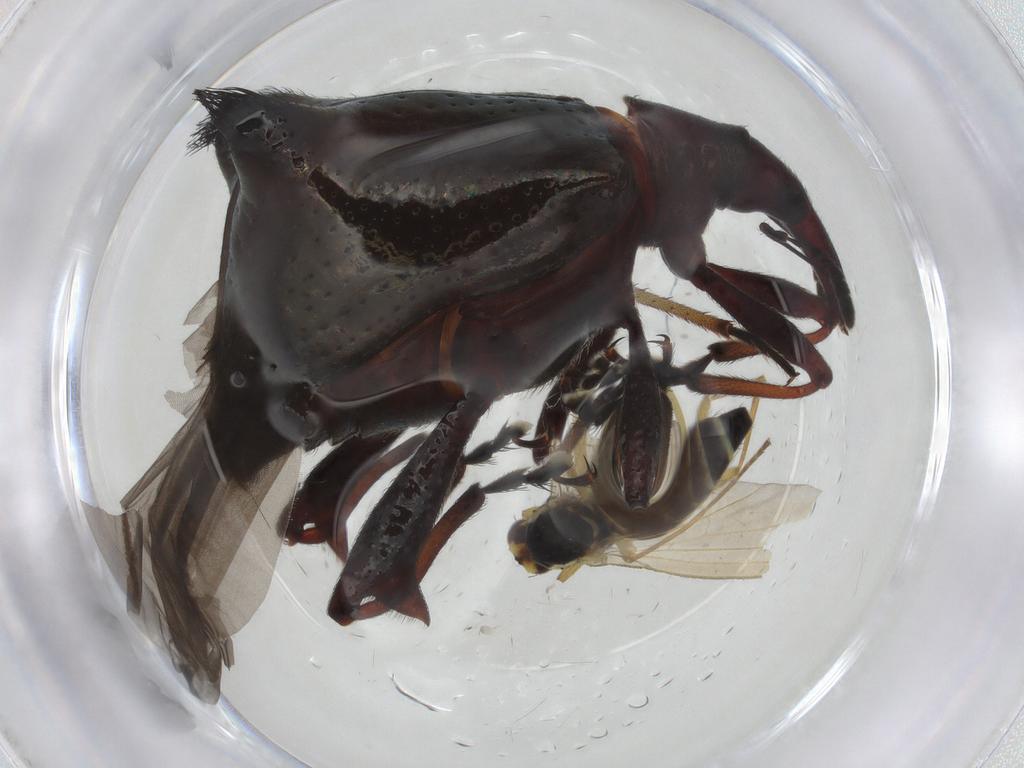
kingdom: Animalia
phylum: Arthropoda
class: Insecta
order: Diptera
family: Agromyzidae
